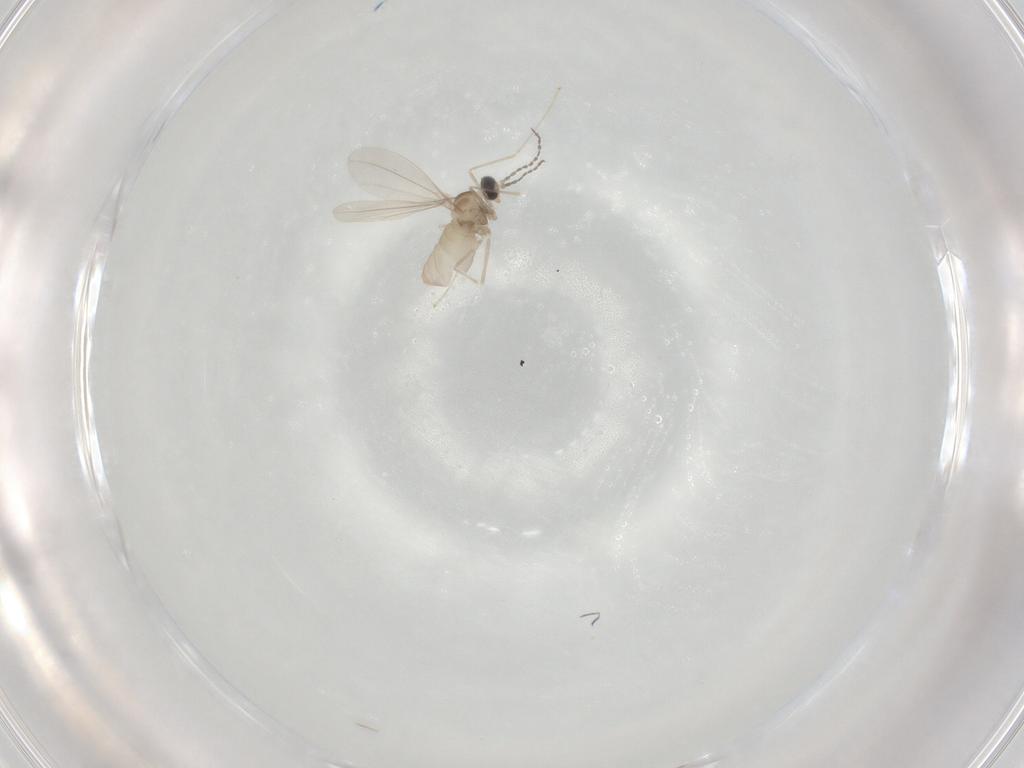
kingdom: Animalia
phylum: Arthropoda
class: Insecta
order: Diptera
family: Cecidomyiidae
